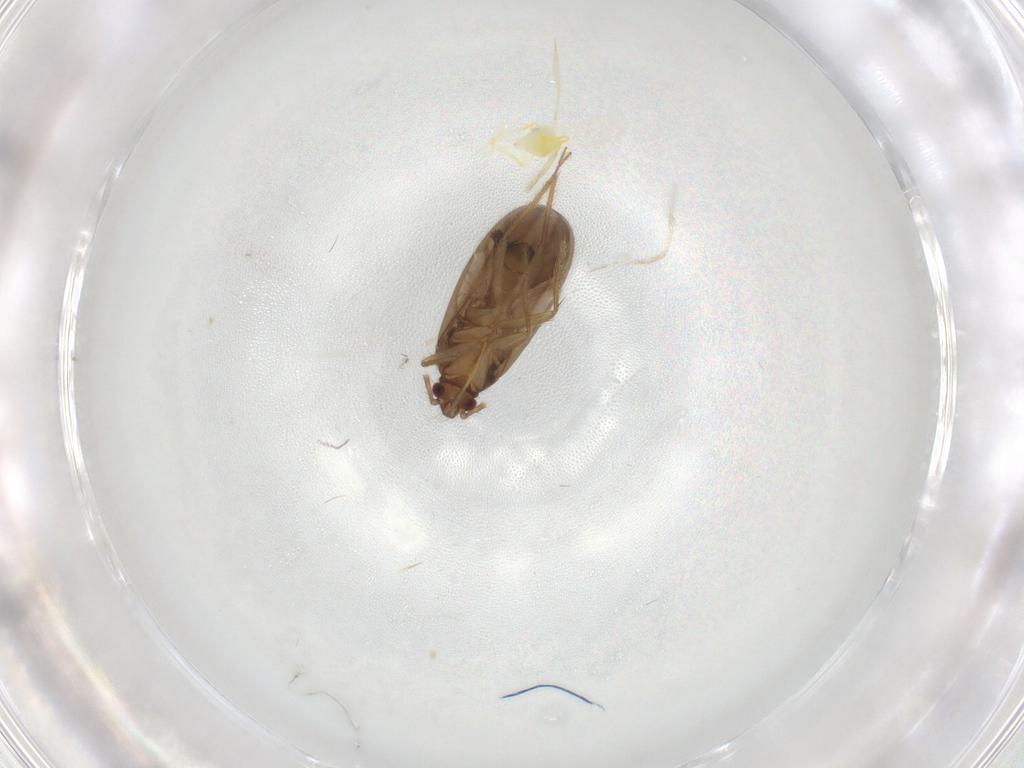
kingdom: Animalia
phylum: Arthropoda
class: Insecta
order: Hemiptera
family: Ceratocombidae
